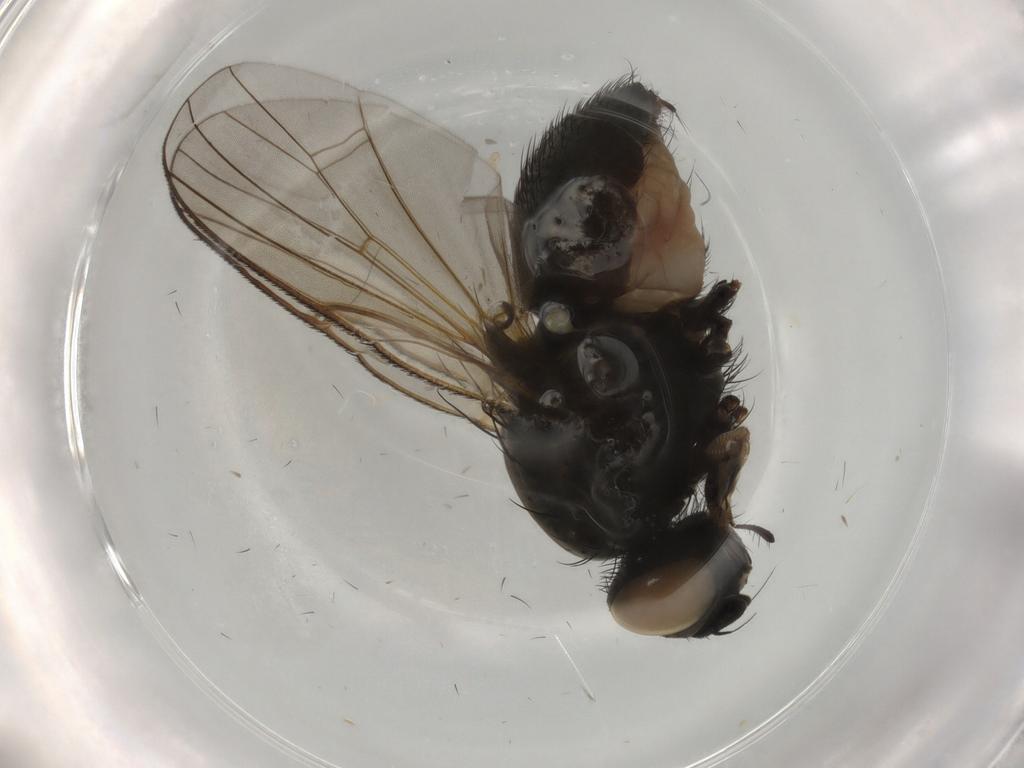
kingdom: Animalia
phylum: Arthropoda
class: Insecta
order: Diptera
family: Anthomyiidae
